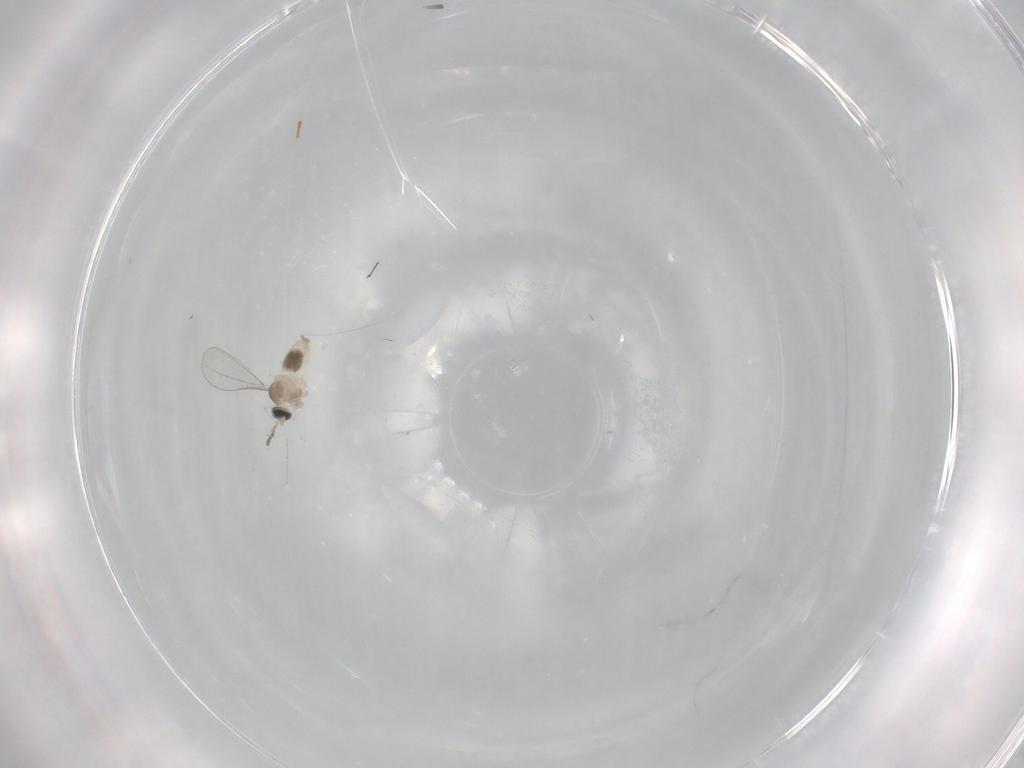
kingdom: Animalia
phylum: Arthropoda
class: Insecta
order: Diptera
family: Cecidomyiidae
